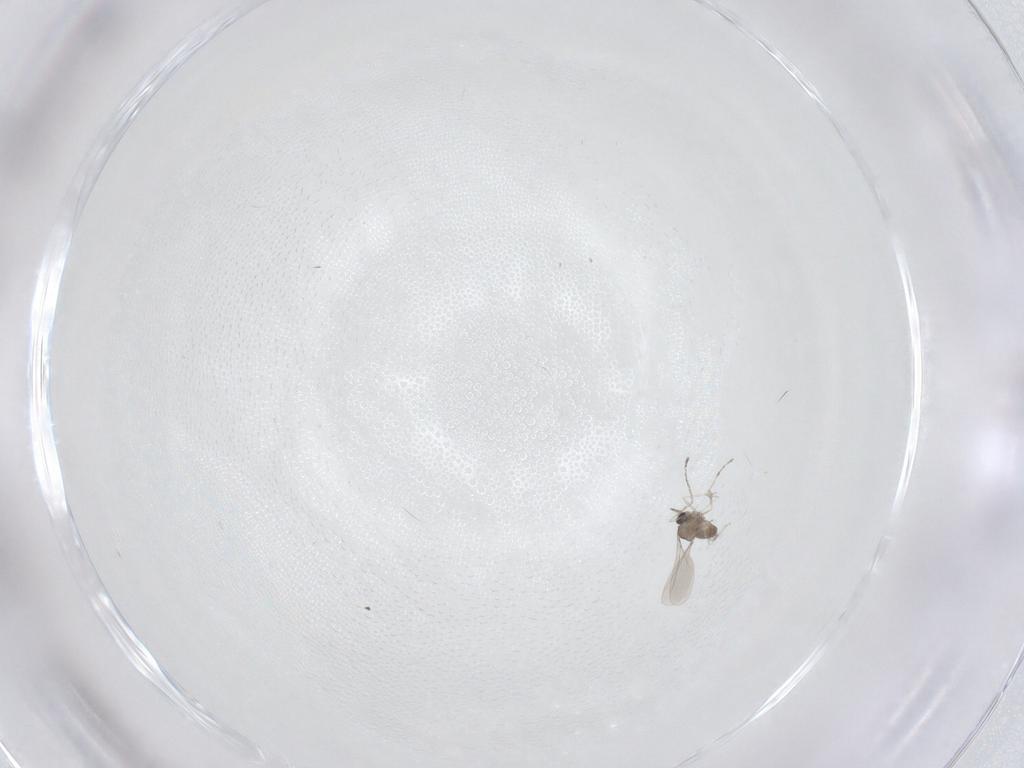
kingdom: Animalia
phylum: Arthropoda
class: Insecta
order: Diptera
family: Cecidomyiidae
